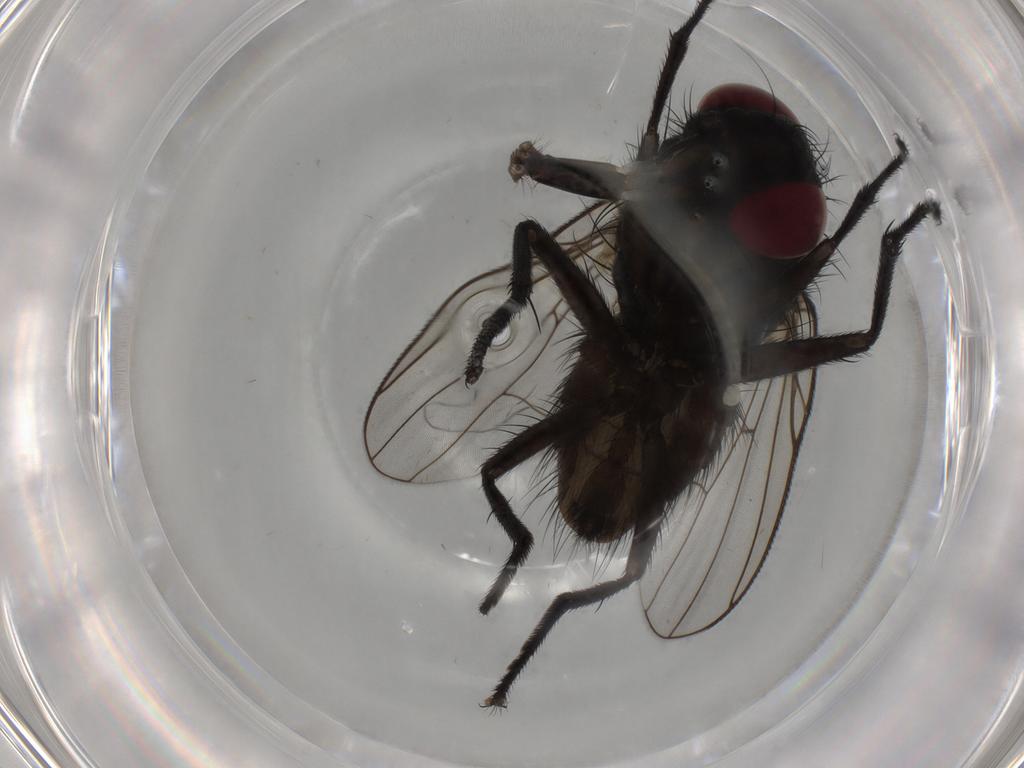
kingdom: Animalia
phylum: Arthropoda
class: Insecta
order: Diptera
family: Muscidae
